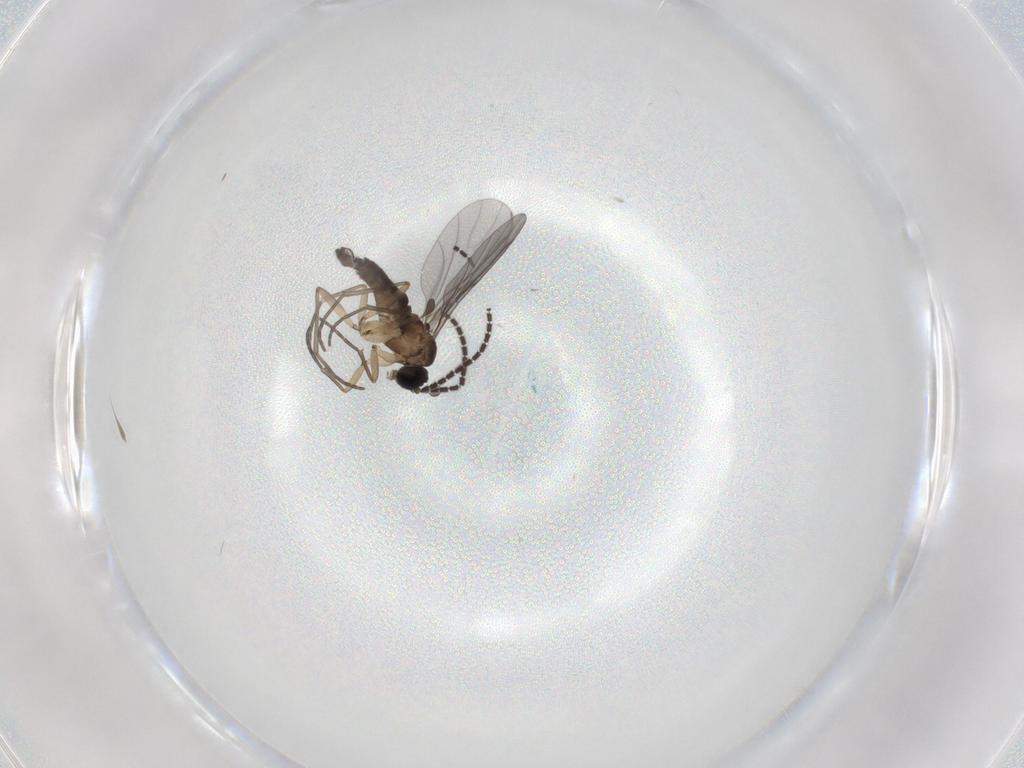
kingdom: Animalia
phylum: Arthropoda
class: Insecta
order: Diptera
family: Sciaridae
